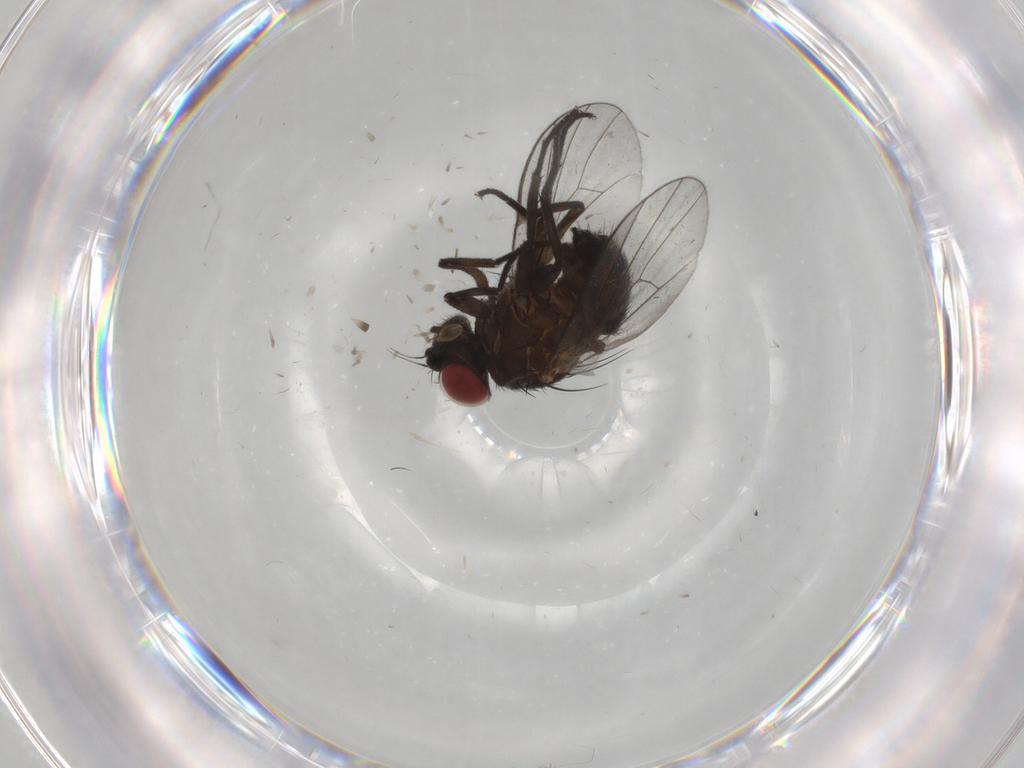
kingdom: Animalia
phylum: Arthropoda
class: Insecta
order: Diptera
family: Agromyzidae
